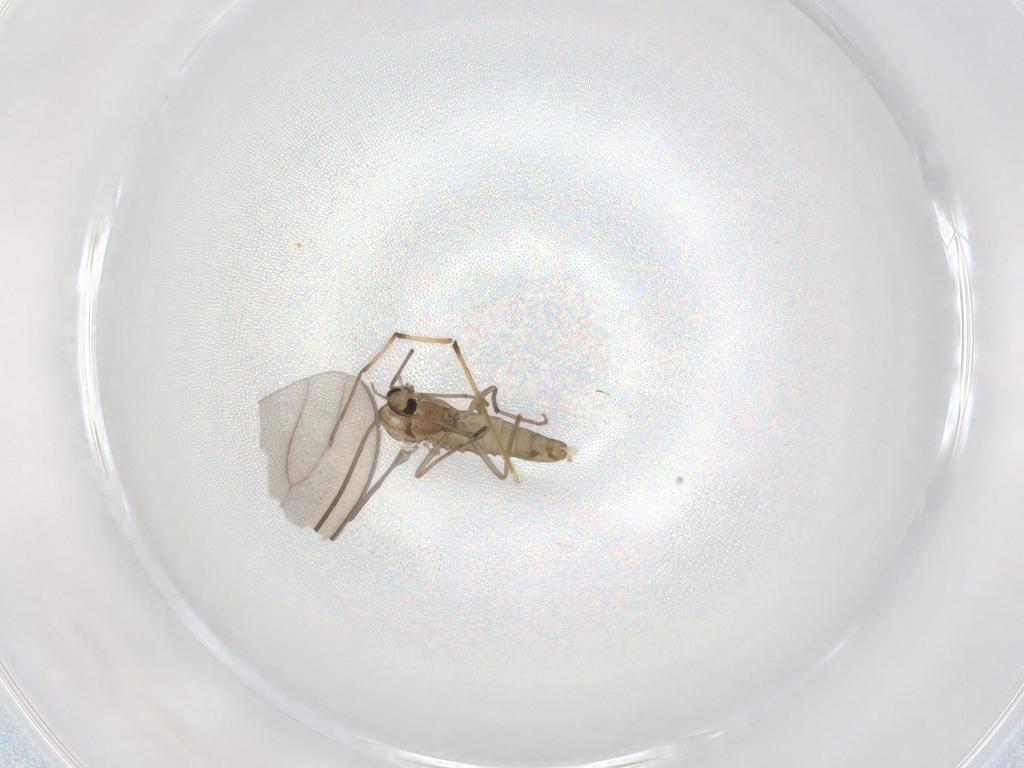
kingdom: Animalia
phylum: Arthropoda
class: Insecta
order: Diptera
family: Chironomidae
